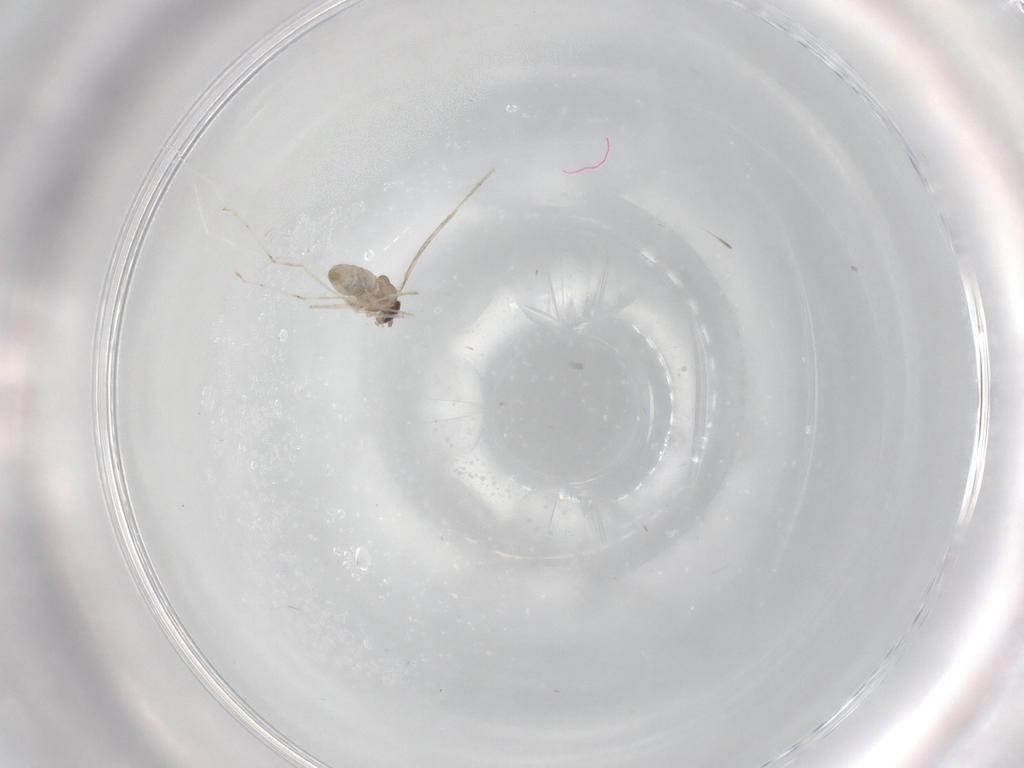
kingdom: Animalia
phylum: Arthropoda
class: Insecta
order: Diptera
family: Cecidomyiidae
